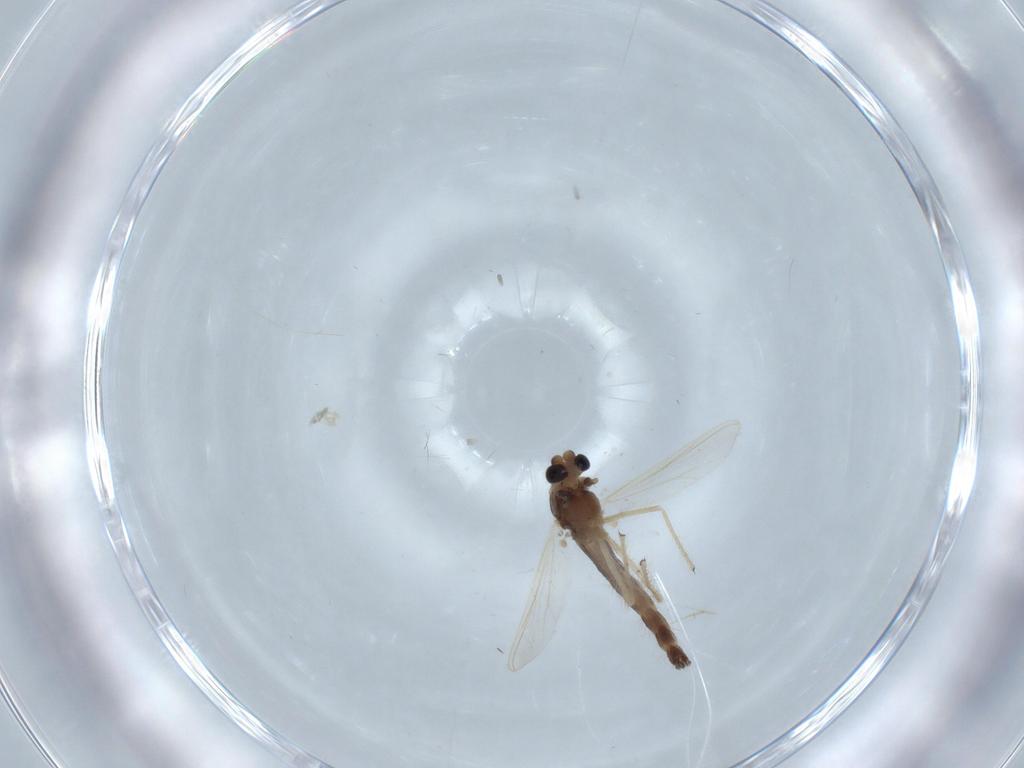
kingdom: Animalia
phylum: Arthropoda
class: Insecta
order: Diptera
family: Chironomidae
